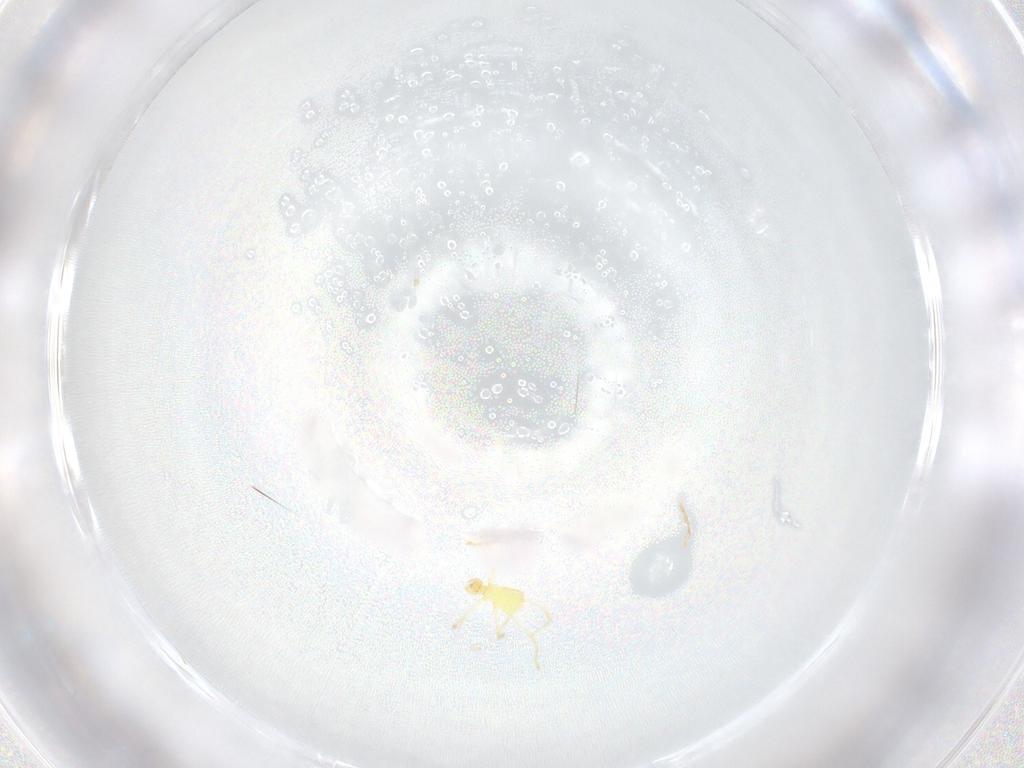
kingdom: Animalia
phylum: Arthropoda
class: Arachnida
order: Trombidiformes
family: Erythraeidae
